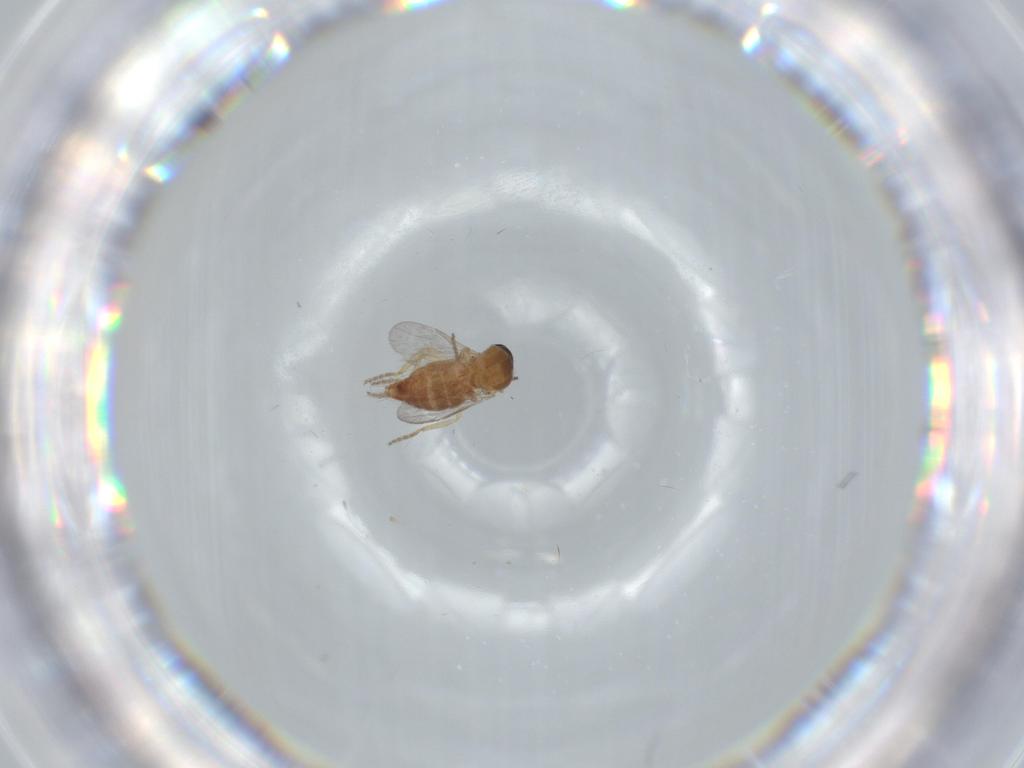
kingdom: Animalia
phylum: Arthropoda
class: Insecta
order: Diptera
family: Ceratopogonidae
